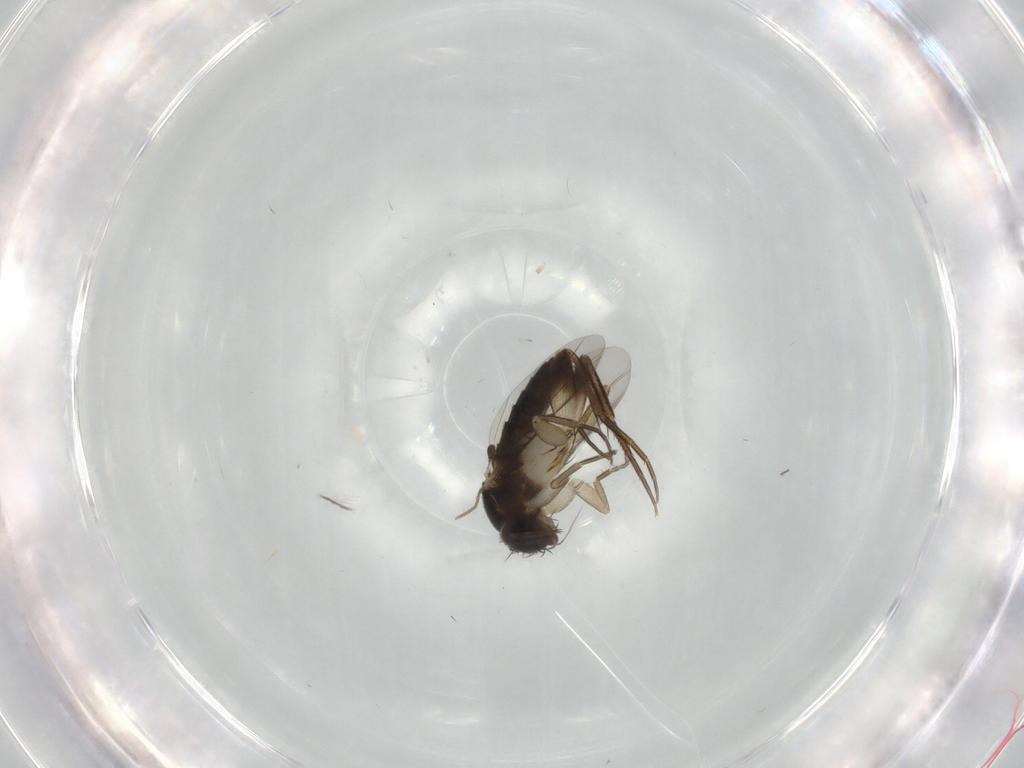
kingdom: Animalia
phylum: Arthropoda
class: Insecta
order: Diptera
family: Phoridae
